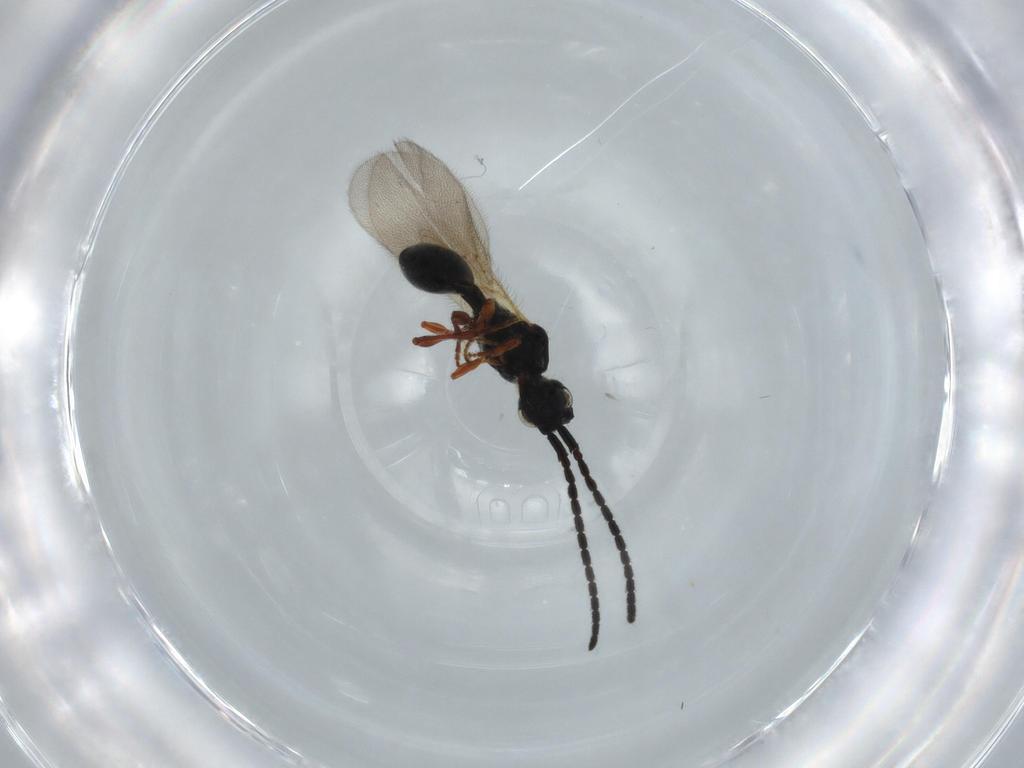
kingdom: Animalia
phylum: Arthropoda
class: Insecta
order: Hymenoptera
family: Diapriidae
